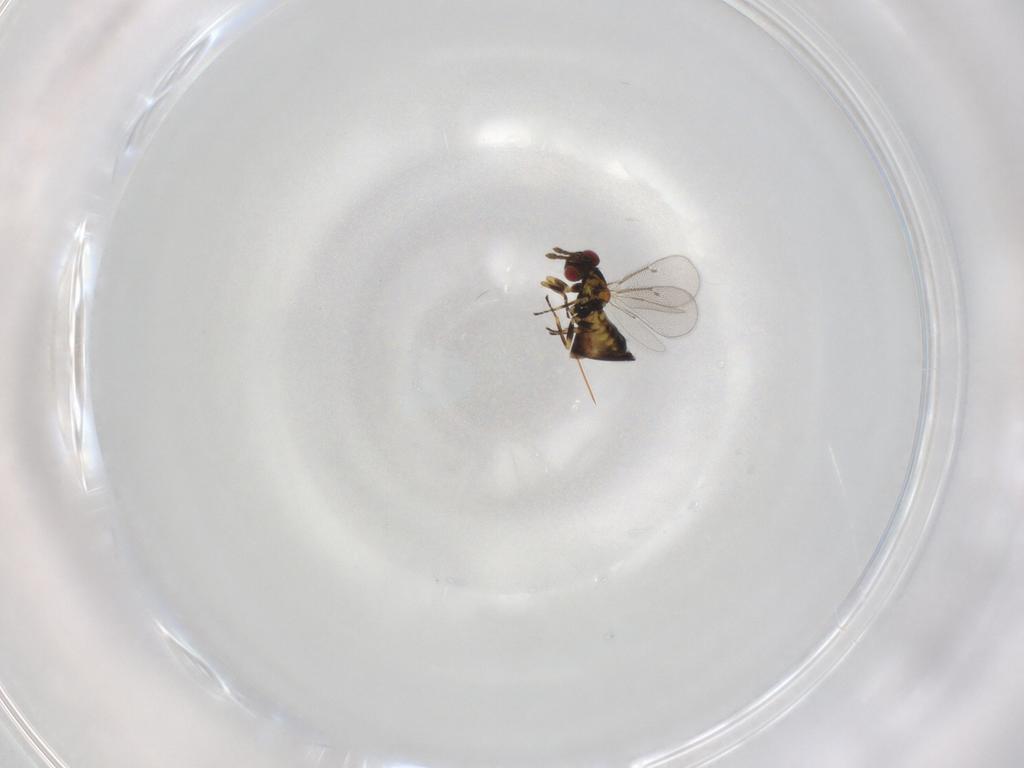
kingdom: Animalia
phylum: Arthropoda
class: Insecta
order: Hymenoptera
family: Eulophidae
